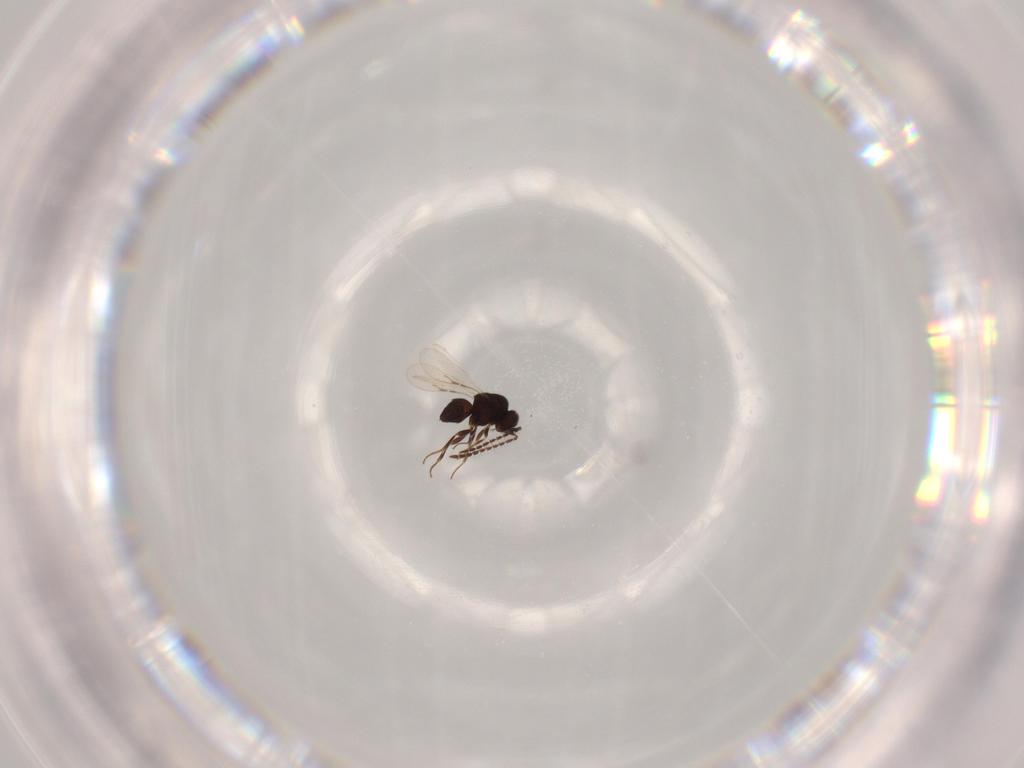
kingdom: Animalia
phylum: Arthropoda
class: Insecta
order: Hymenoptera
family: Ceraphronidae
